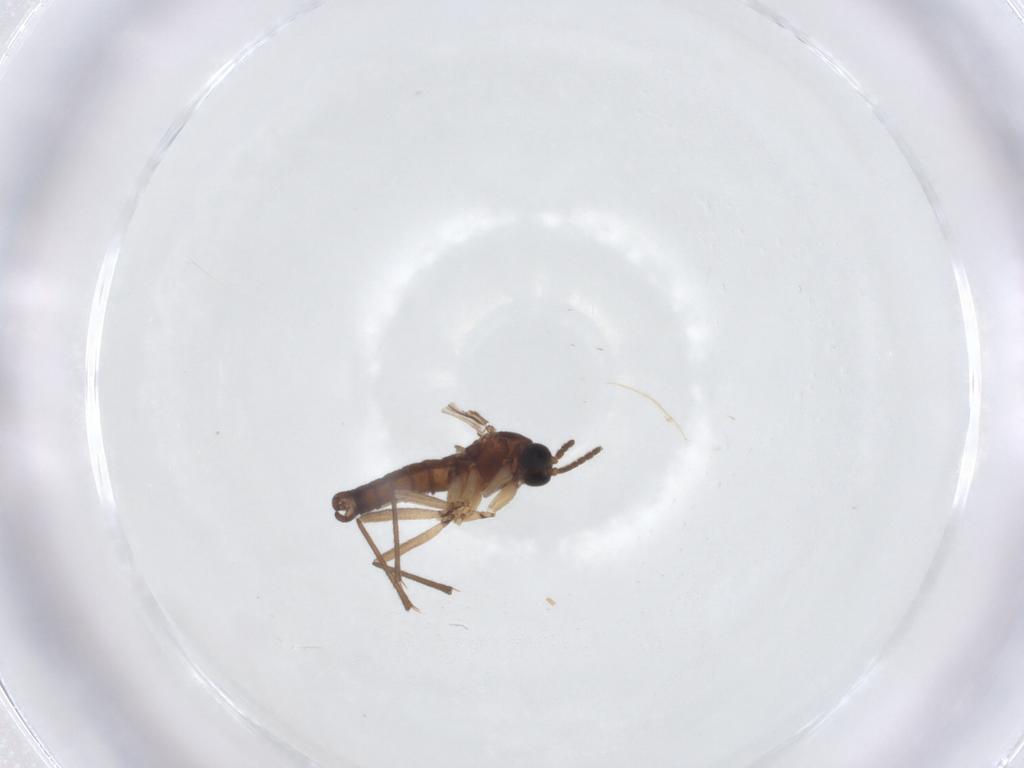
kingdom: Animalia
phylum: Arthropoda
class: Insecta
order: Diptera
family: Sciaridae
